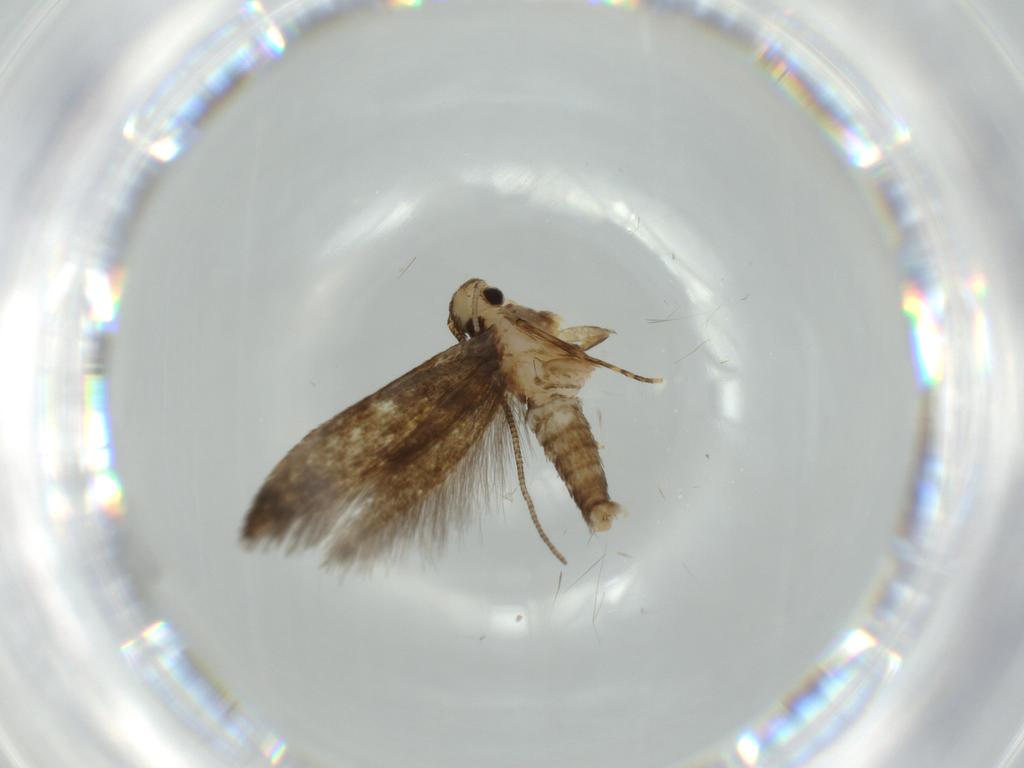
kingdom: Animalia
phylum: Arthropoda
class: Insecta
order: Lepidoptera
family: Tineidae
